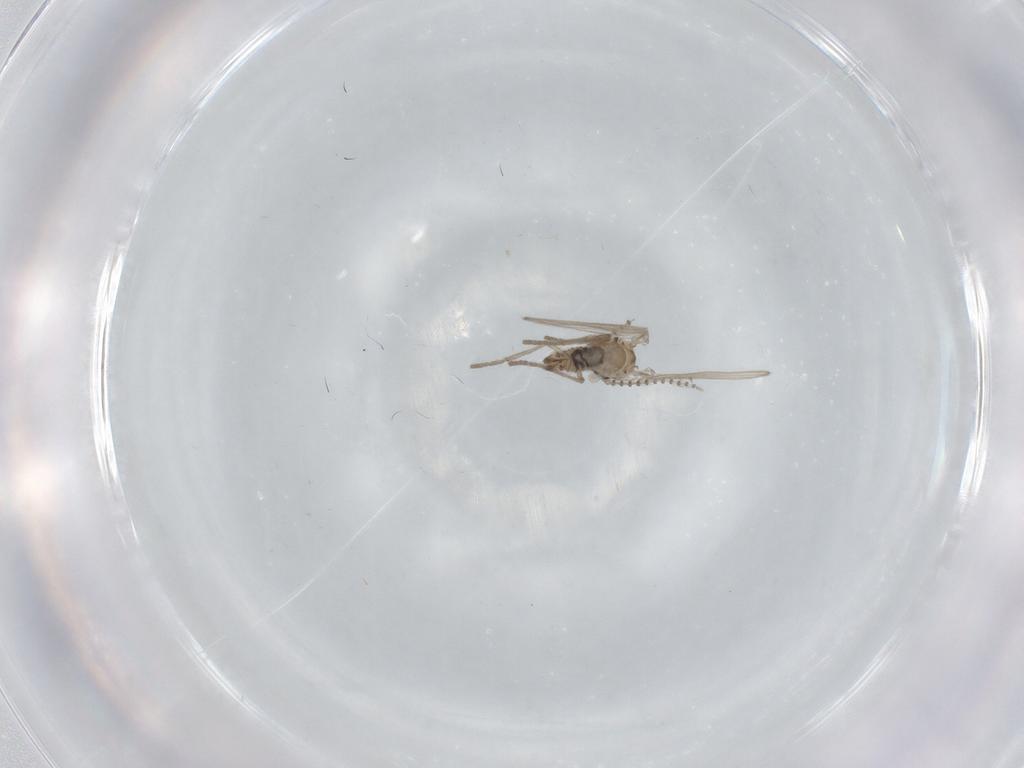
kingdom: Animalia
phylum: Arthropoda
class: Insecta
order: Diptera
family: Psychodidae
